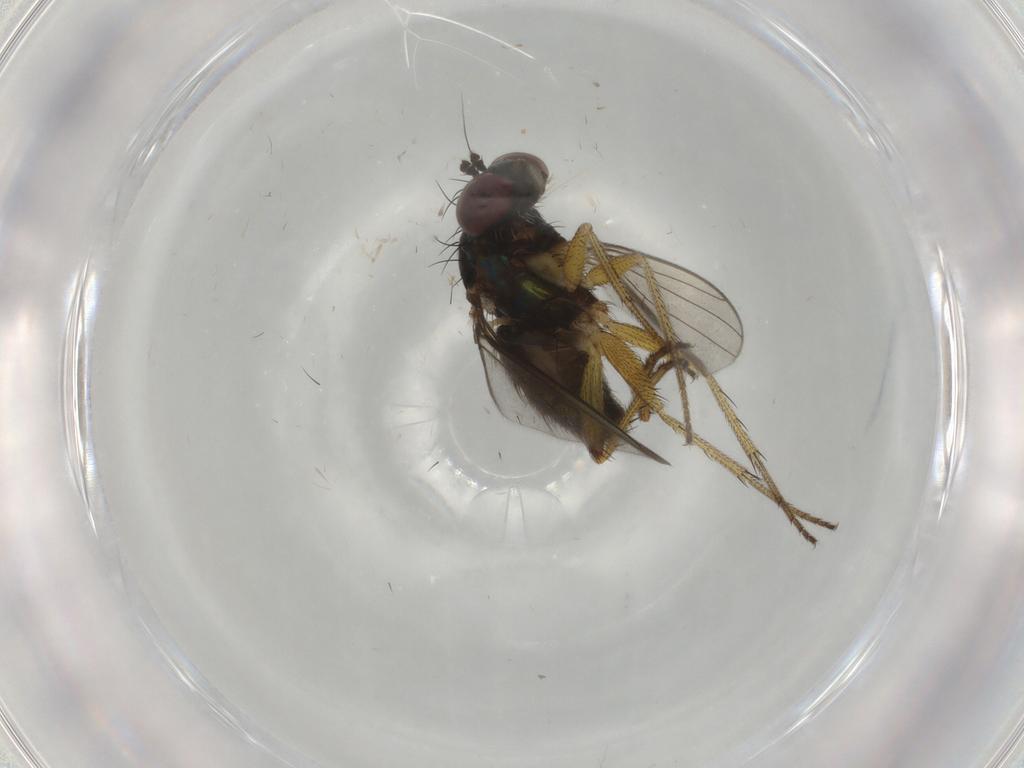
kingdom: Animalia
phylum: Arthropoda
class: Insecta
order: Diptera
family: Dolichopodidae
